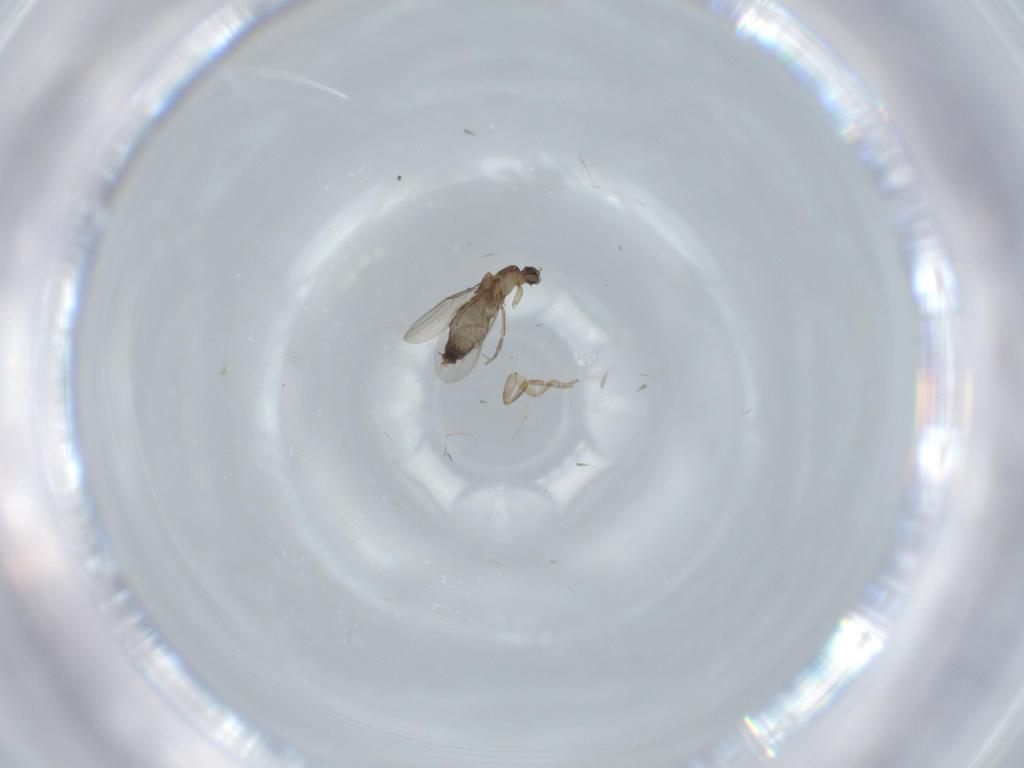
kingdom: Animalia
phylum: Arthropoda
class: Insecta
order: Diptera
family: Phoridae
